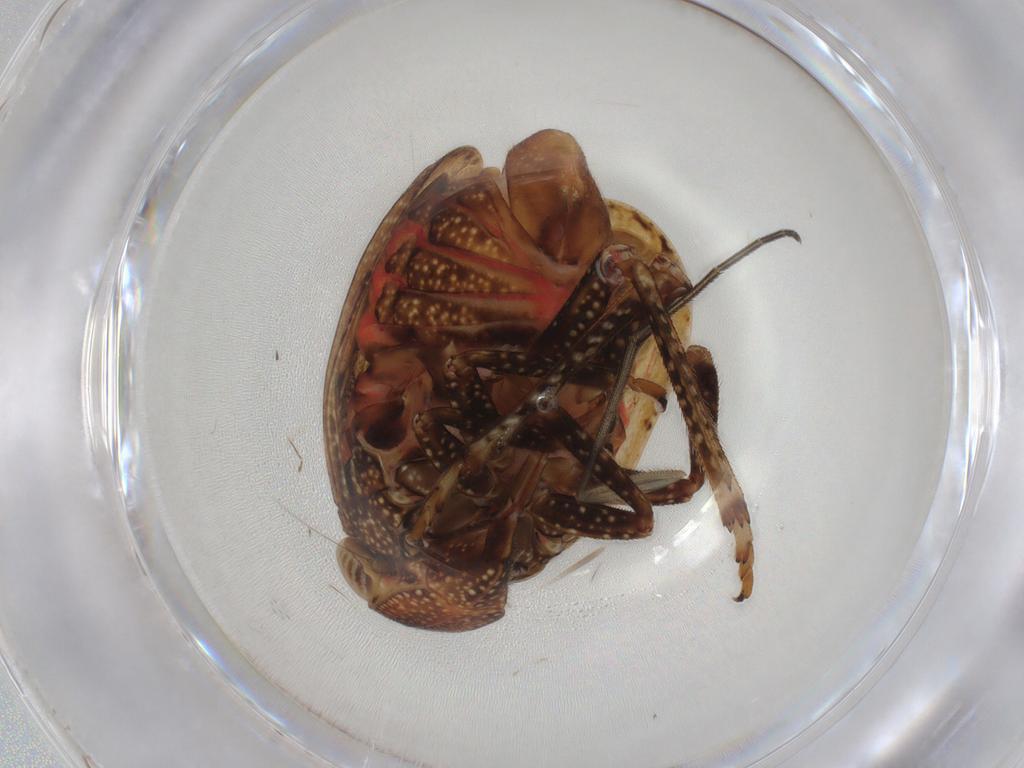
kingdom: Animalia
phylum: Arthropoda
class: Insecta
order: Hemiptera
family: Tropiduchidae
